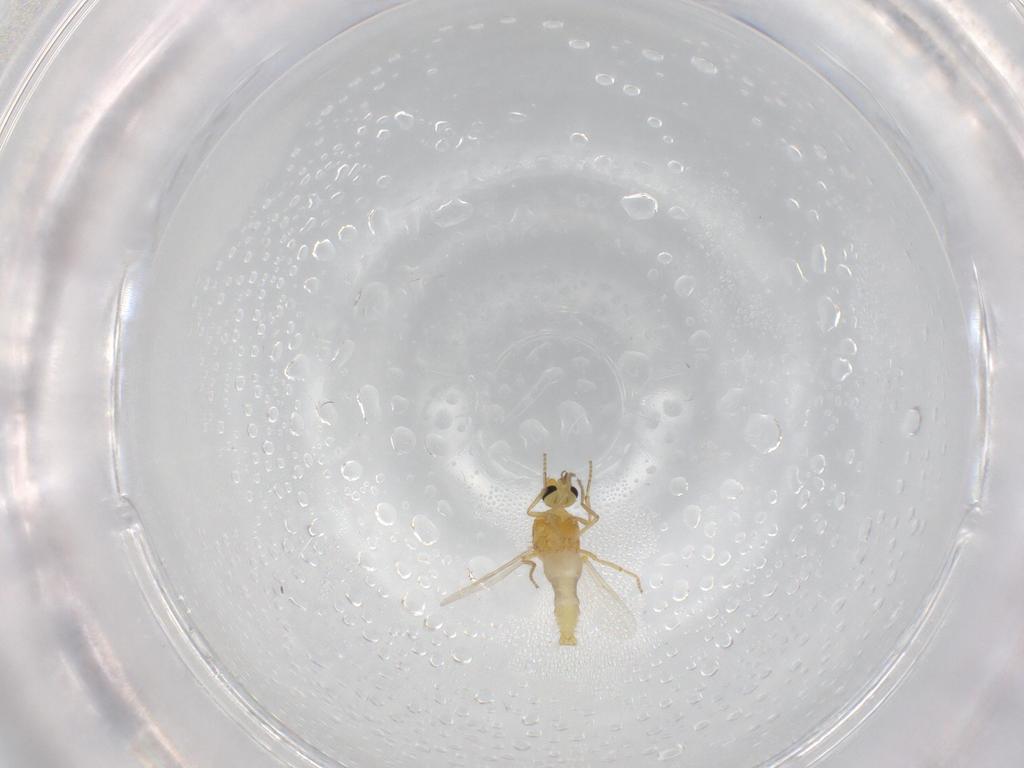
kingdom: Animalia
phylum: Arthropoda
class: Insecta
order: Diptera
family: Ceratopogonidae
